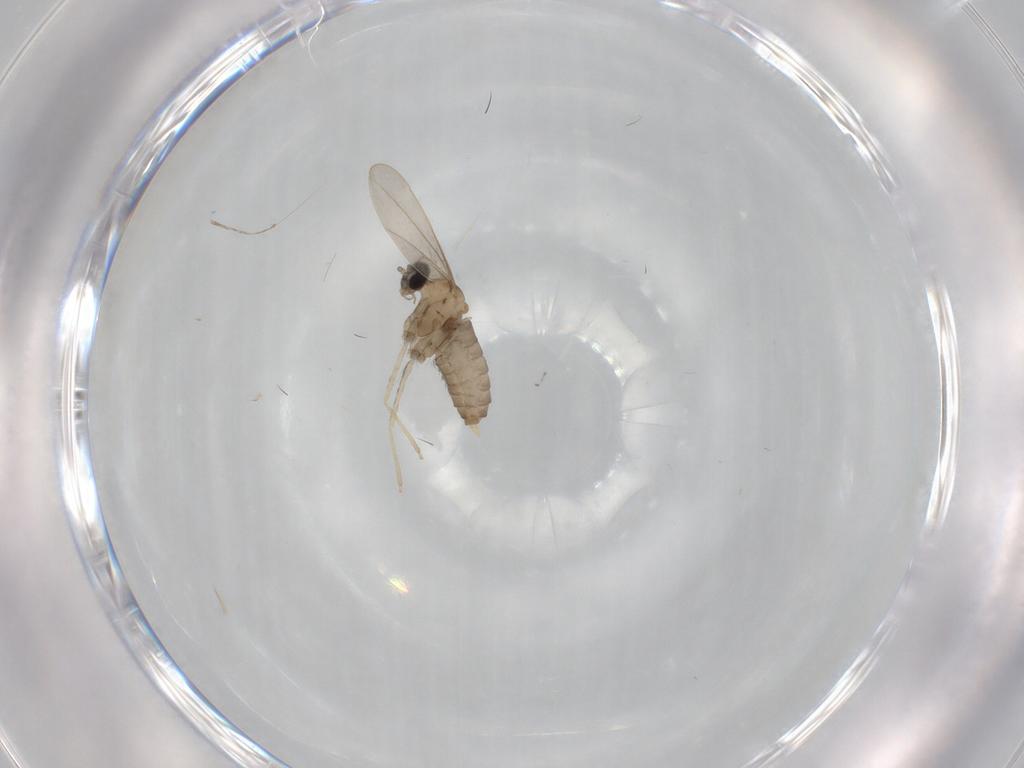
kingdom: Animalia
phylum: Arthropoda
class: Insecta
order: Diptera
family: Cecidomyiidae
